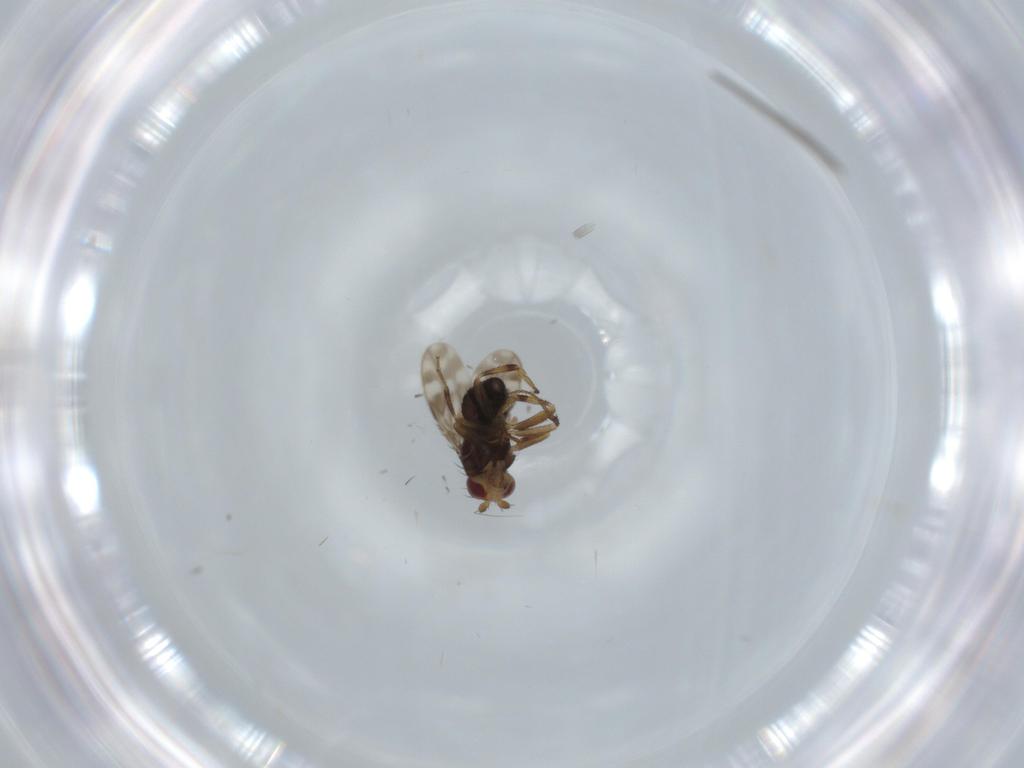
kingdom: Animalia
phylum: Arthropoda
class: Insecta
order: Diptera
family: Sphaeroceridae
